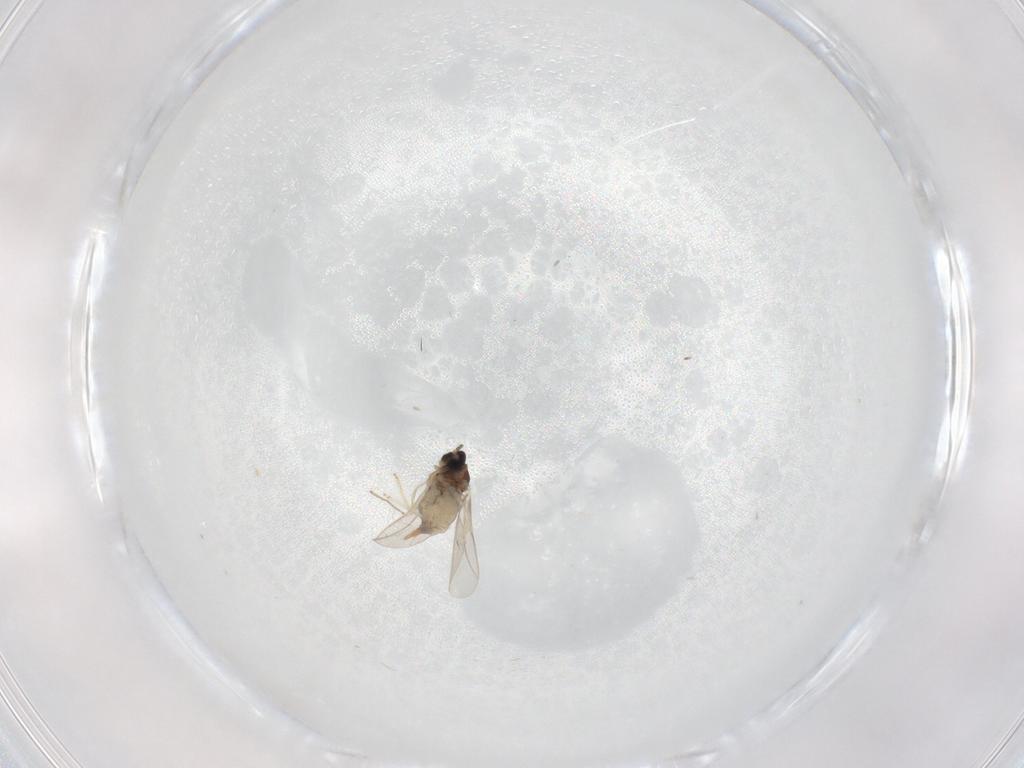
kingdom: Animalia
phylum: Arthropoda
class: Insecta
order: Diptera
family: Cecidomyiidae
